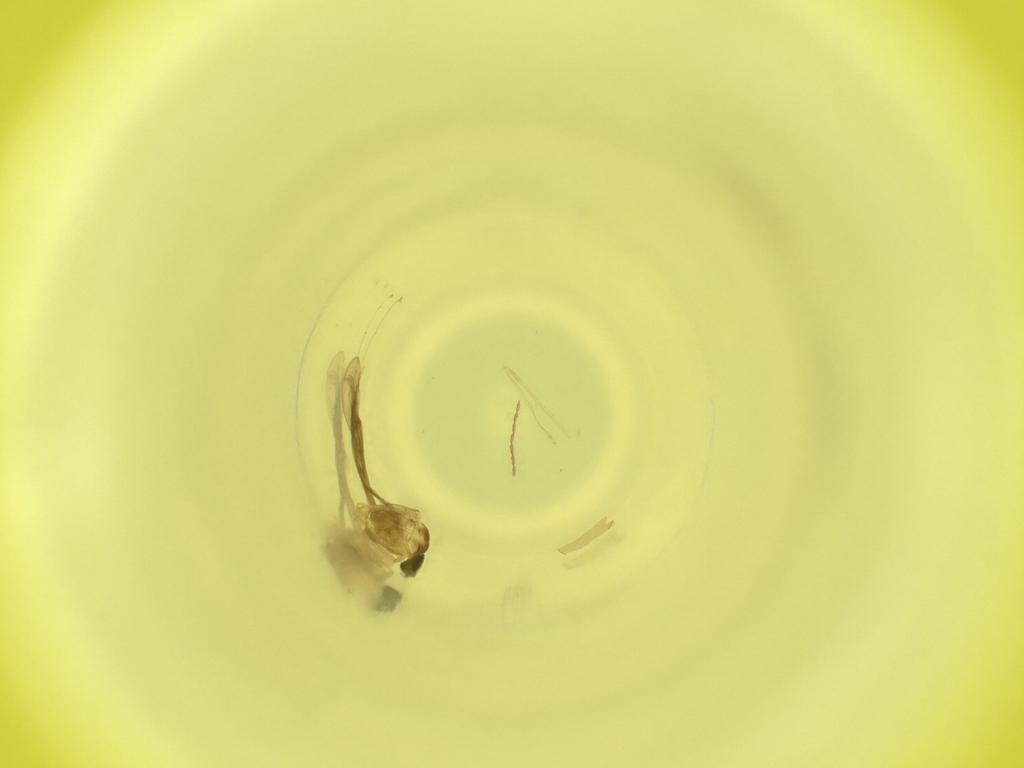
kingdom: Animalia
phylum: Arthropoda
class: Insecta
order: Diptera
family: Cecidomyiidae
